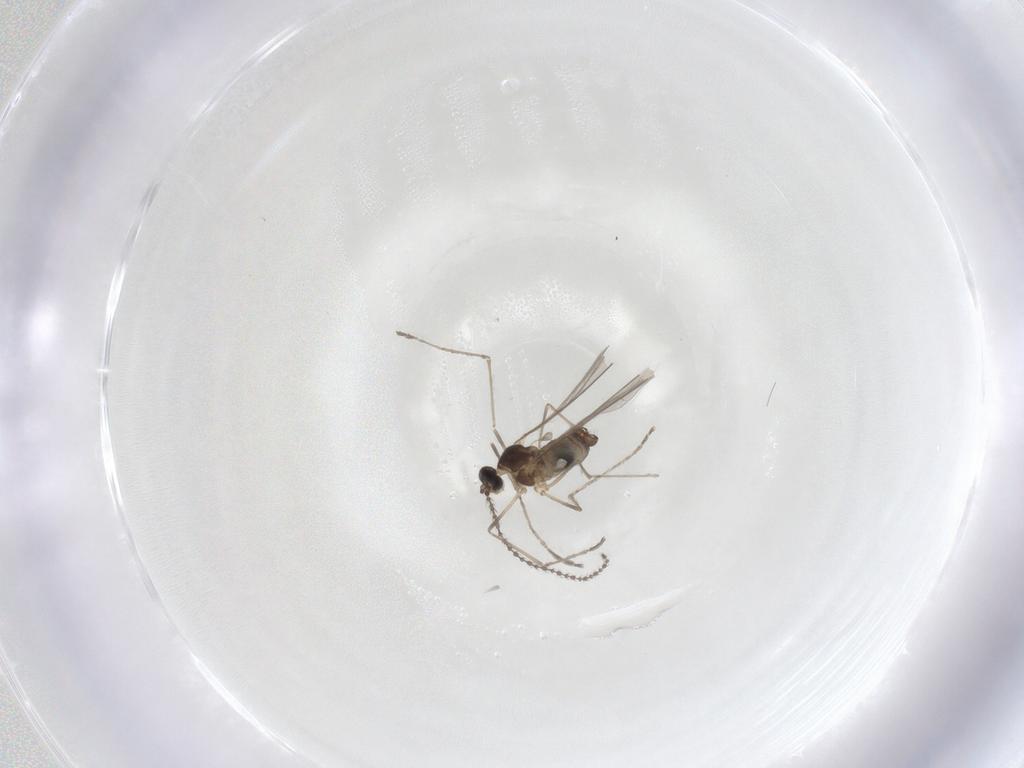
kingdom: Animalia
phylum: Arthropoda
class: Insecta
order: Diptera
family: Cecidomyiidae
